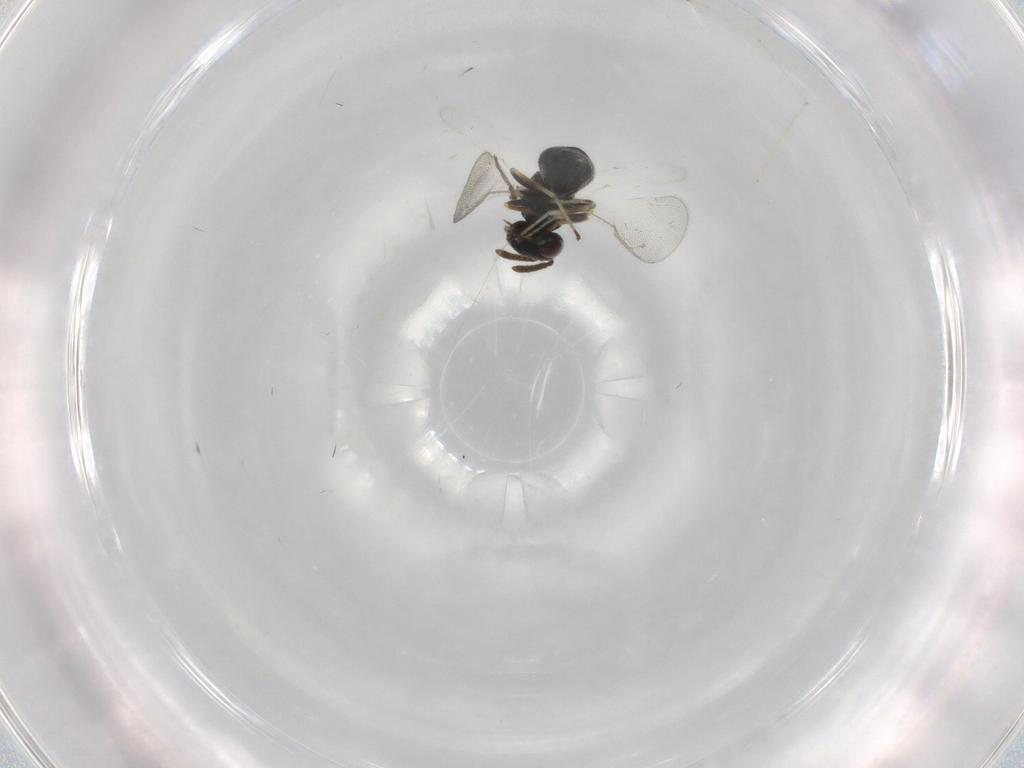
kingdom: Animalia
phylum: Arthropoda
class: Insecta
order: Hymenoptera
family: Pteromalidae
